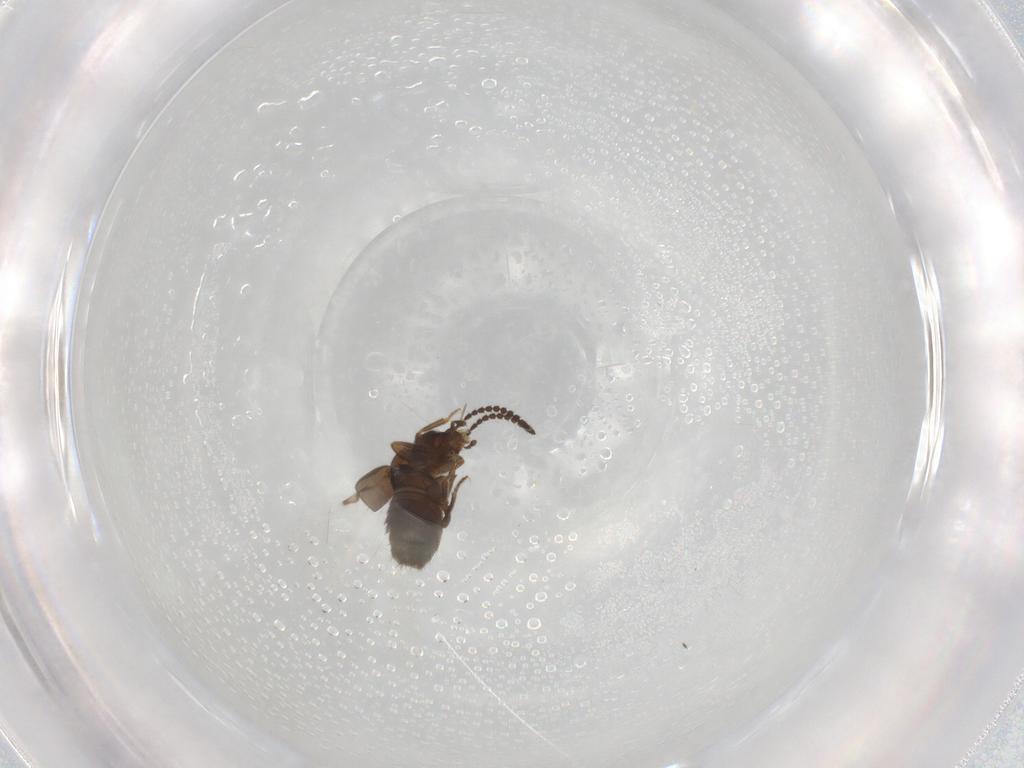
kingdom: Animalia
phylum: Arthropoda
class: Insecta
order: Coleoptera
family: Staphylinidae
